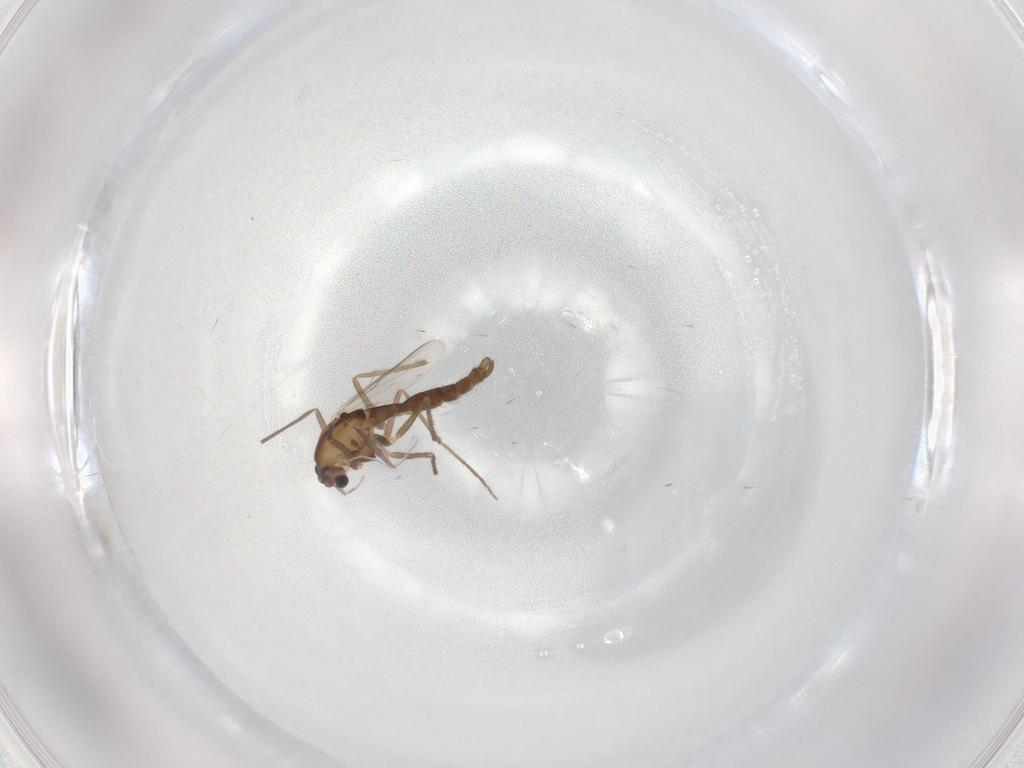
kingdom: Animalia
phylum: Arthropoda
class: Insecta
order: Diptera
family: Chironomidae
